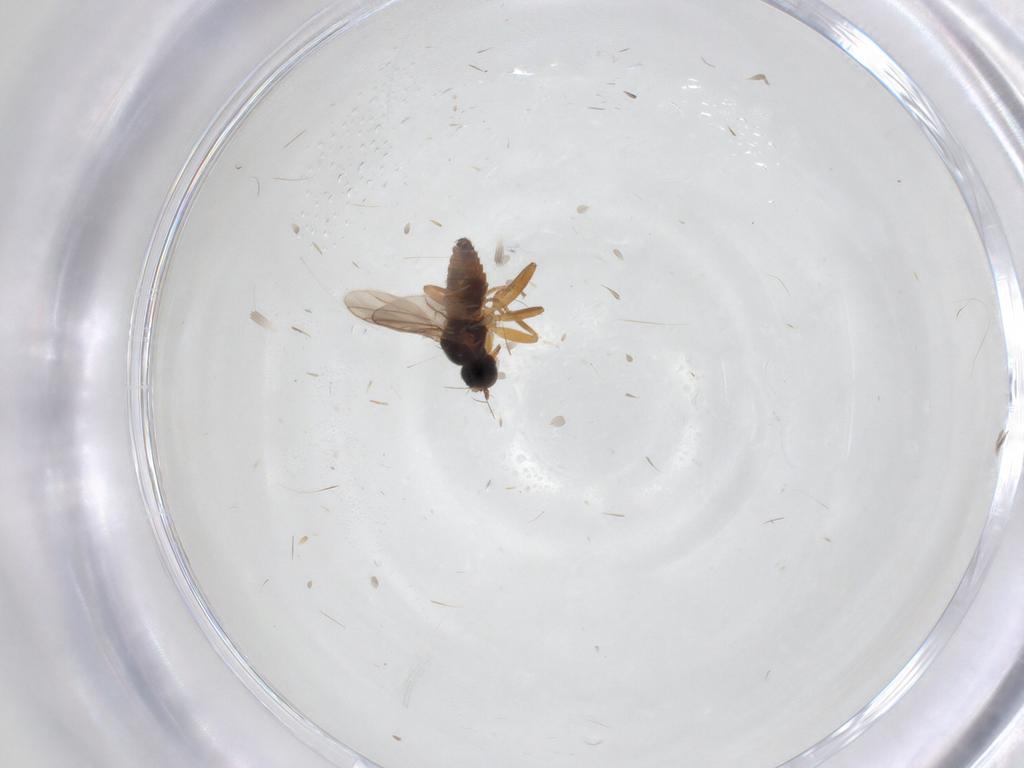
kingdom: Animalia
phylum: Arthropoda
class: Insecta
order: Diptera
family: Hybotidae
